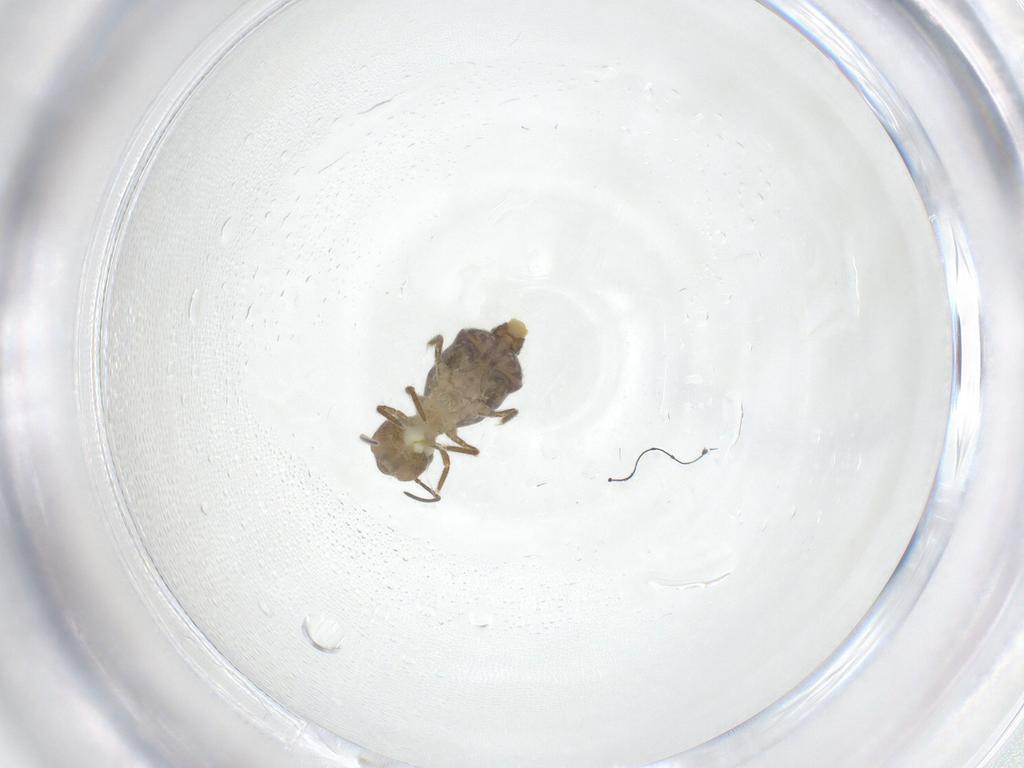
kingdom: Animalia
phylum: Arthropoda
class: Collembola
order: Symphypleona
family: Sminthuridae
